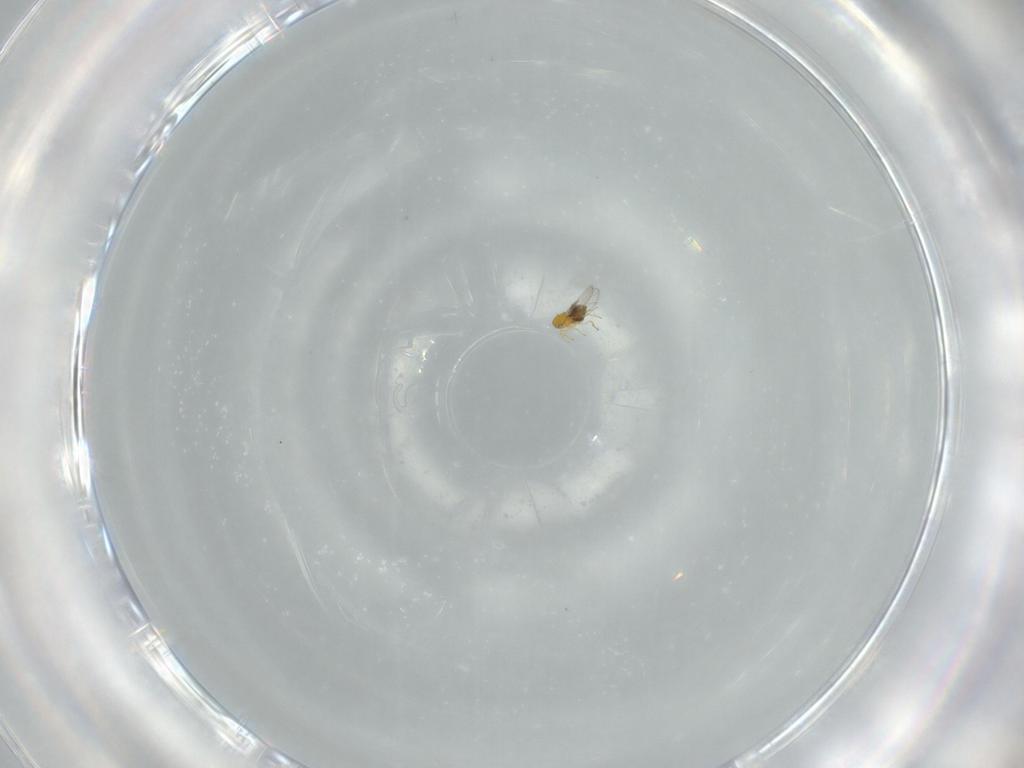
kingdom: Animalia
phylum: Arthropoda
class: Insecta
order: Hymenoptera
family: Trichogrammatidae
